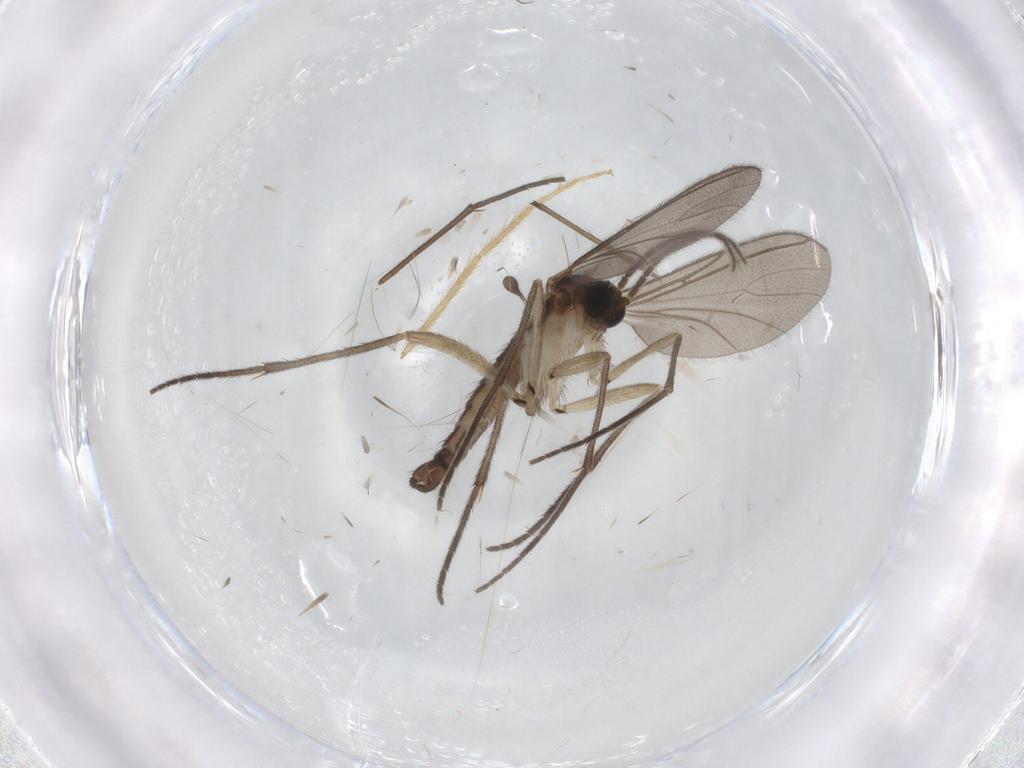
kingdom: Animalia
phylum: Arthropoda
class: Insecta
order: Diptera
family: Sciaridae
